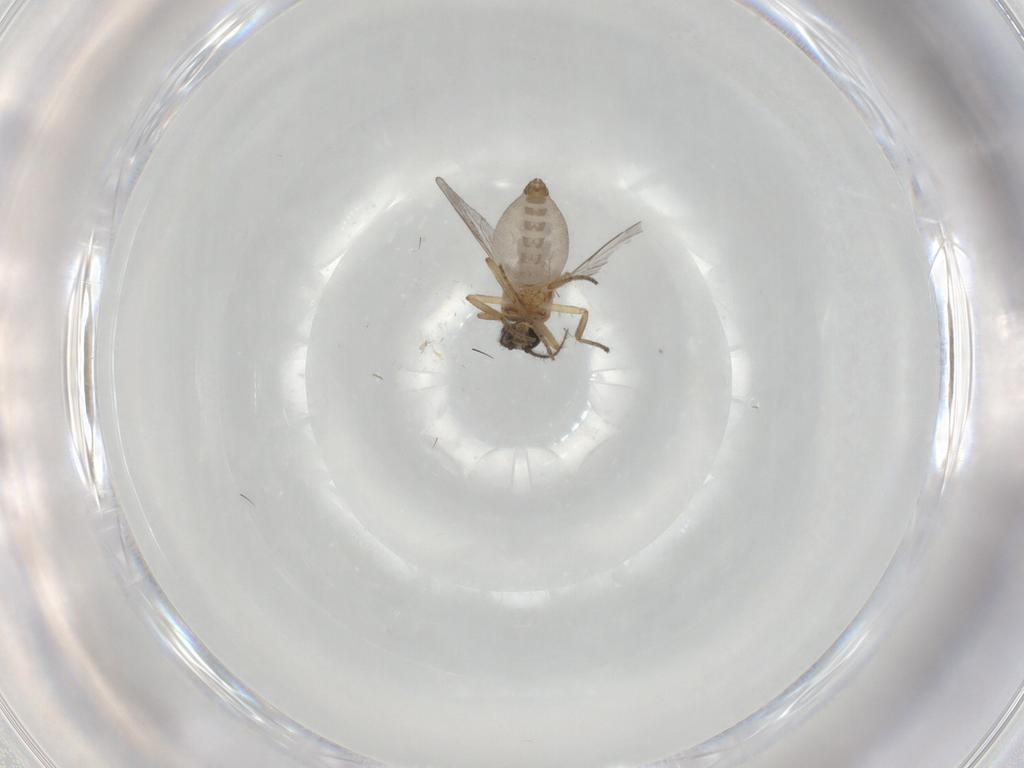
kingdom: Animalia
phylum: Arthropoda
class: Insecta
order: Diptera
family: Ceratopogonidae
